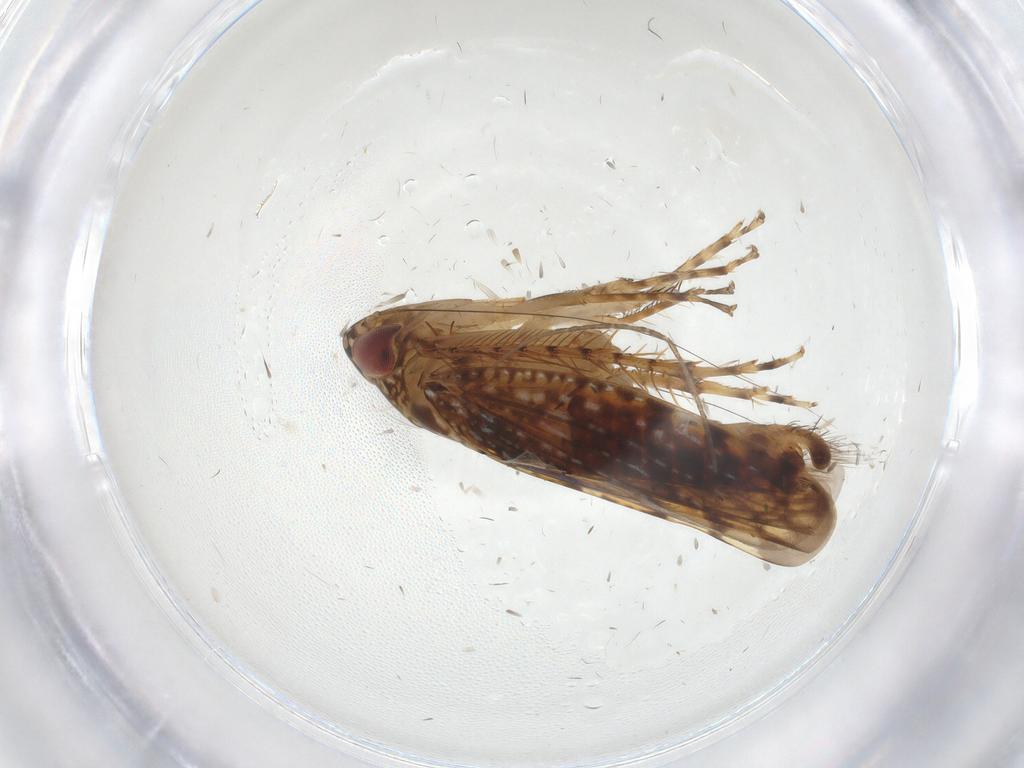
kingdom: Animalia
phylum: Arthropoda
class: Insecta
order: Hemiptera
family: Cicadellidae
